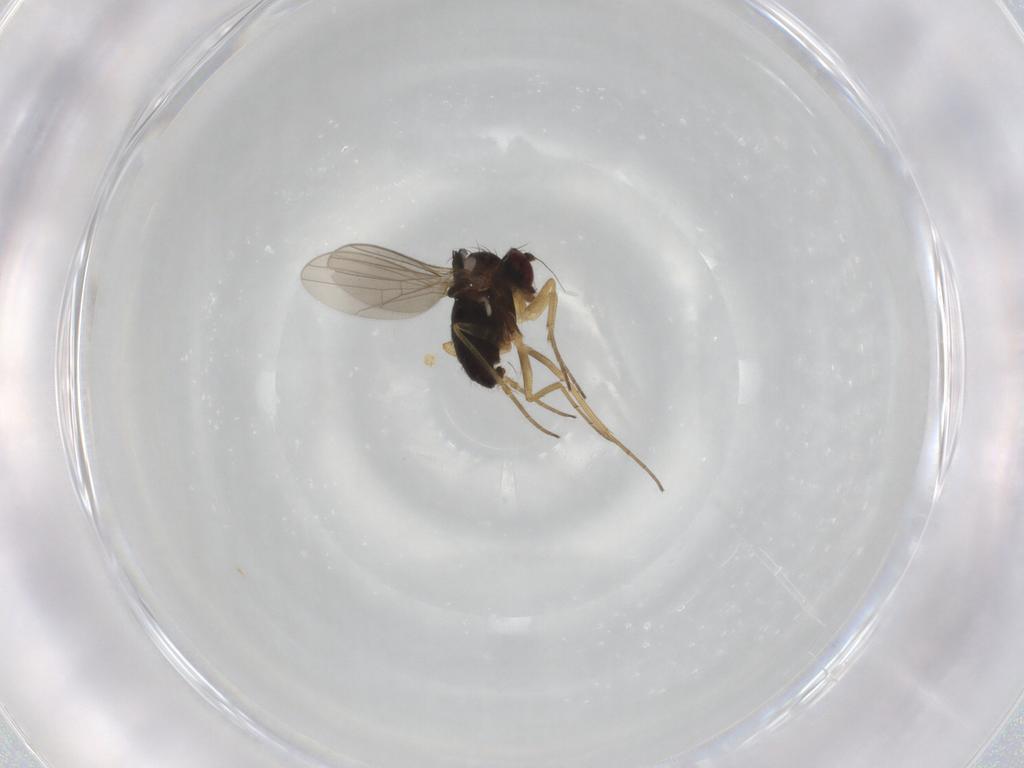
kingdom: Animalia
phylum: Arthropoda
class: Insecta
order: Diptera
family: Dolichopodidae
